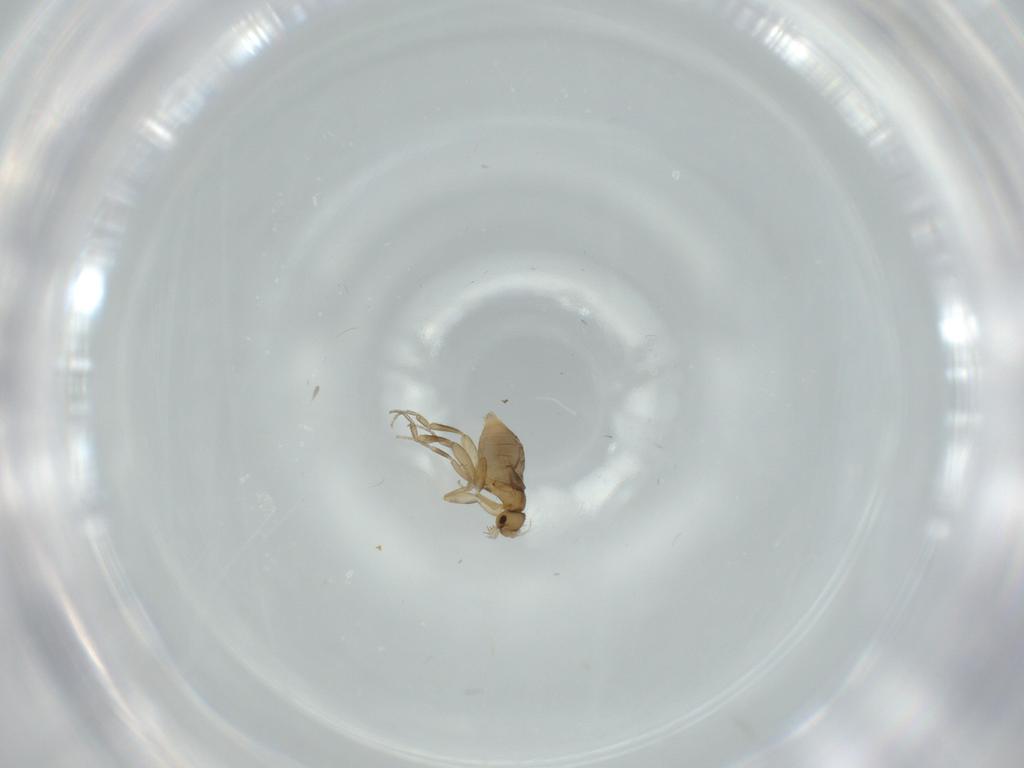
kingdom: Animalia
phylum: Arthropoda
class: Insecta
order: Diptera
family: Phoridae
